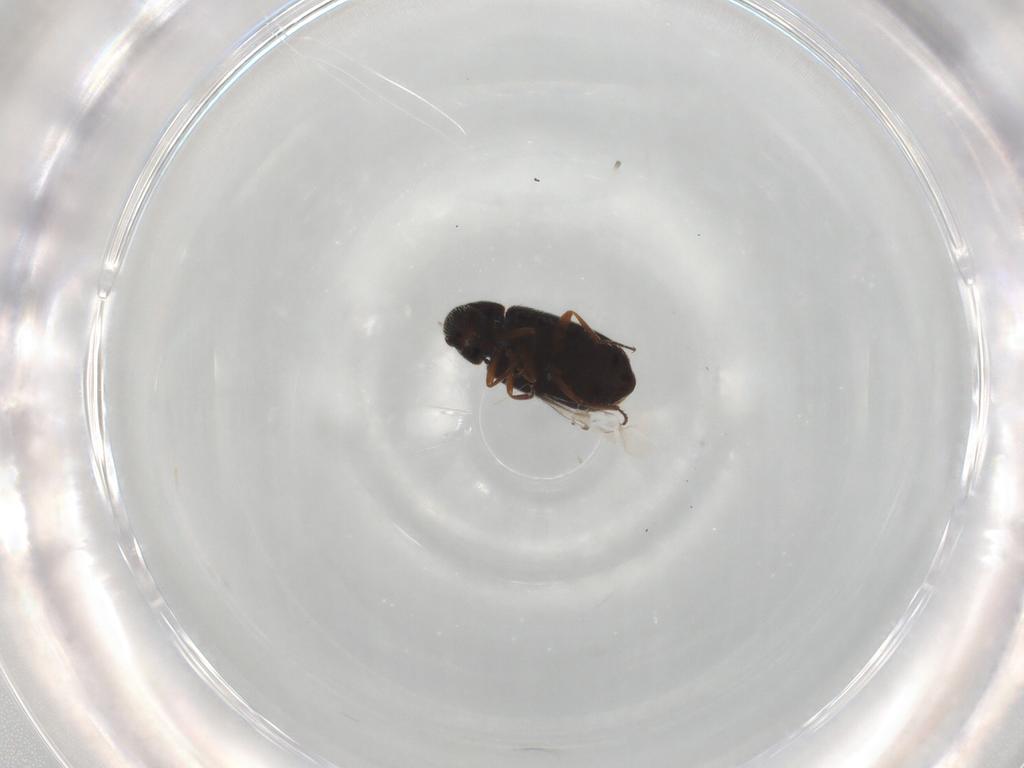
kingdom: Animalia
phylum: Arthropoda
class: Insecta
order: Coleoptera
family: Rhadalidae
